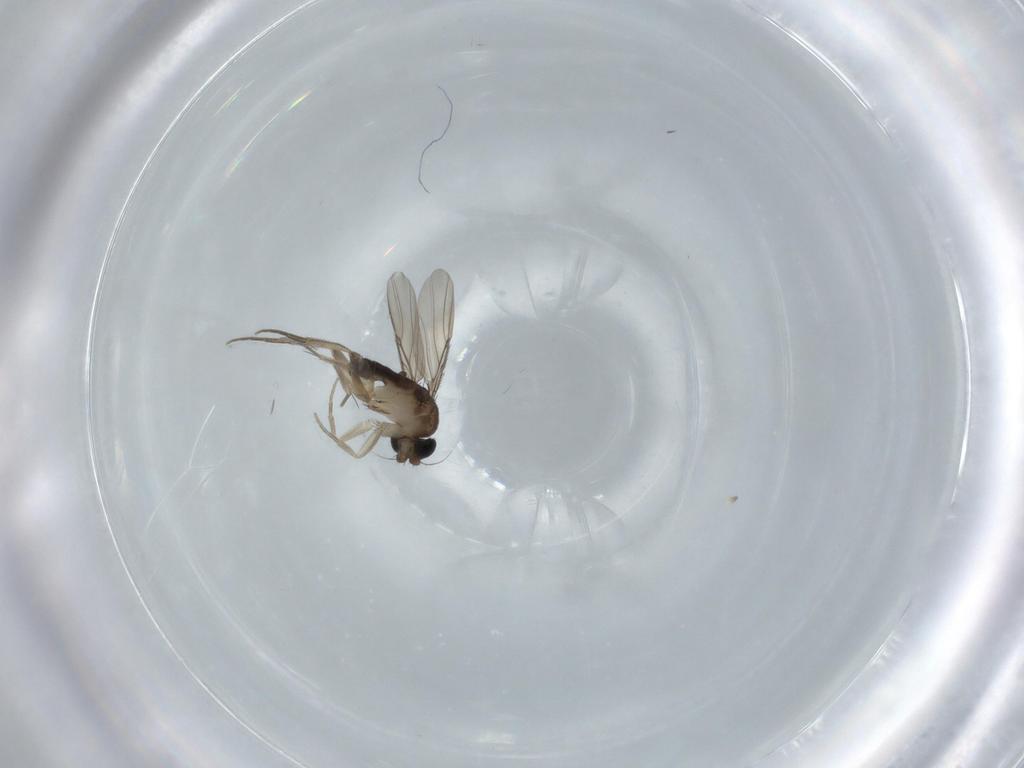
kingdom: Animalia
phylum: Arthropoda
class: Insecta
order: Diptera
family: Phoridae
